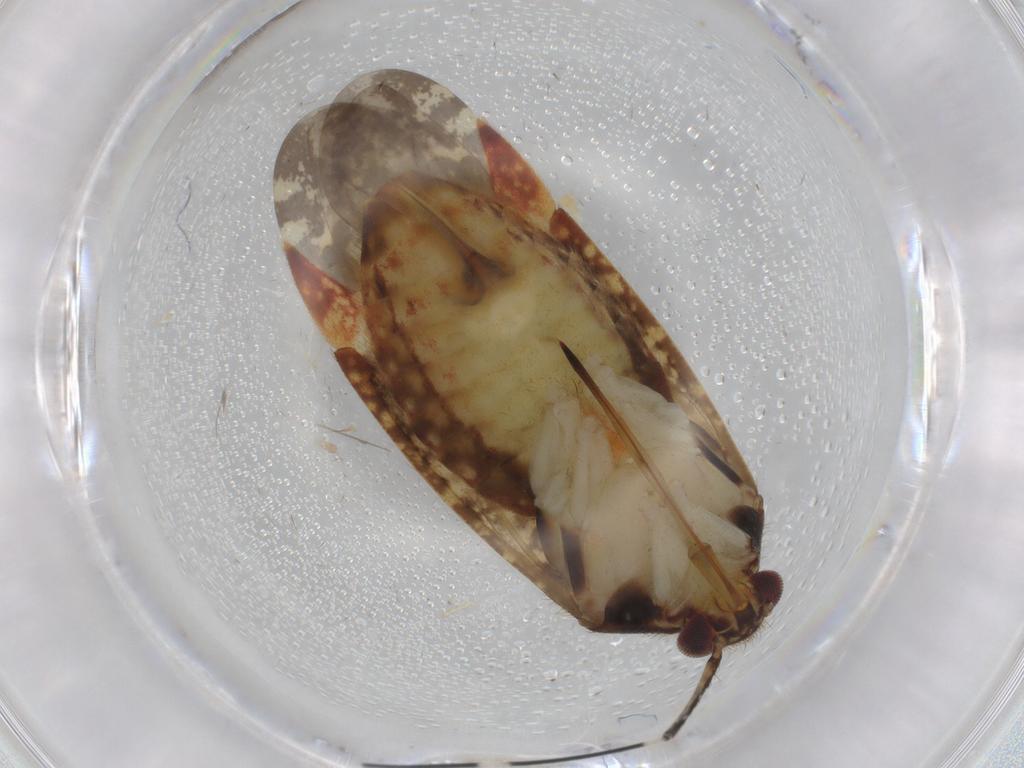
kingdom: Animalia
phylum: Arthropoda
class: Insecta
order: Hemiptera
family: Miridae
